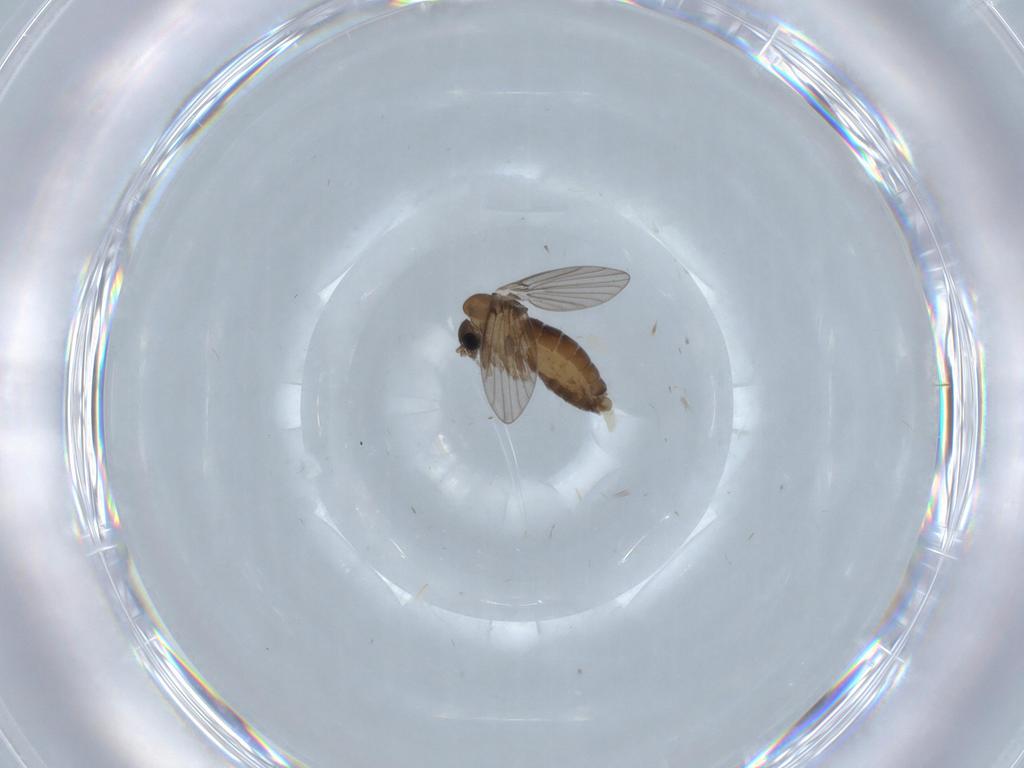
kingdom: Animalia
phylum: Arthropoda
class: Insecta
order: Diptera
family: Psychodidae
